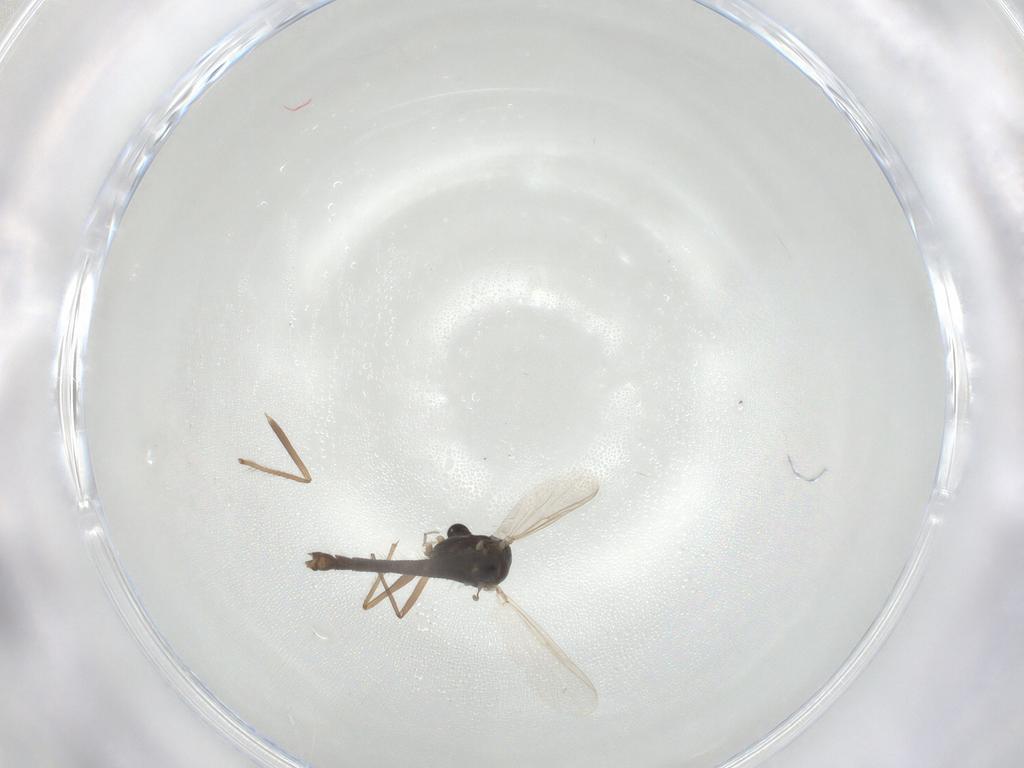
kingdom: Animalia
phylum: Arthropoda
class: Insecta
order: Diptera
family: Chironomidae
